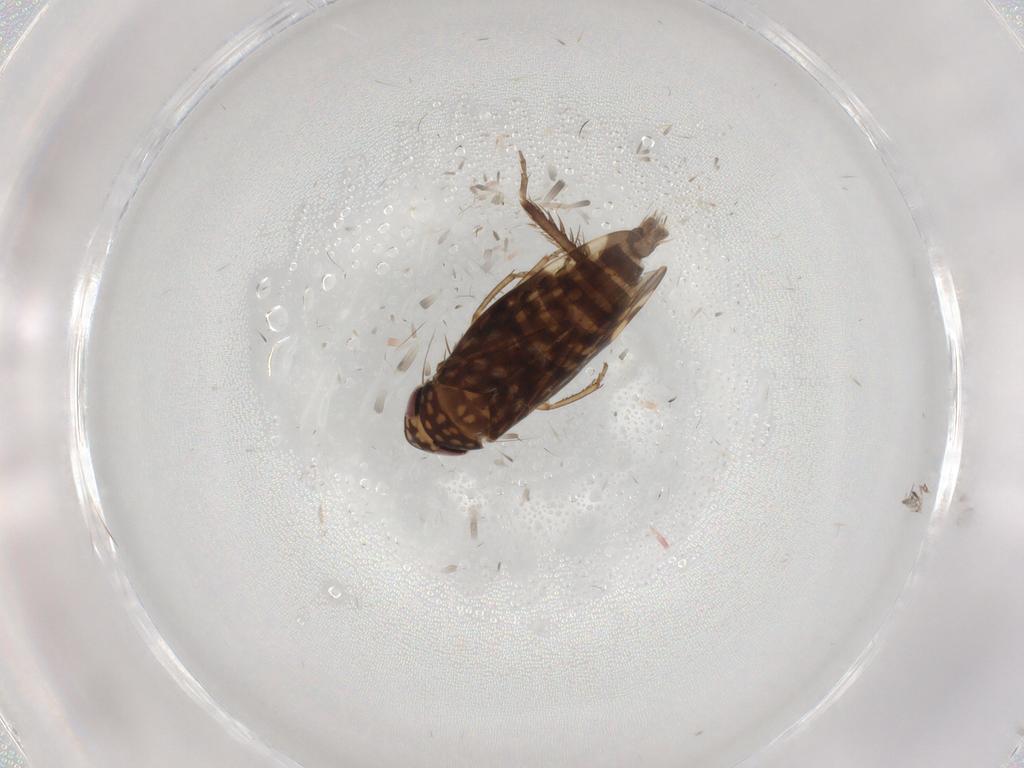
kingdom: Animalia
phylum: Arthropoda
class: Insecta
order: Hemiptera
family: Cicadellidae
